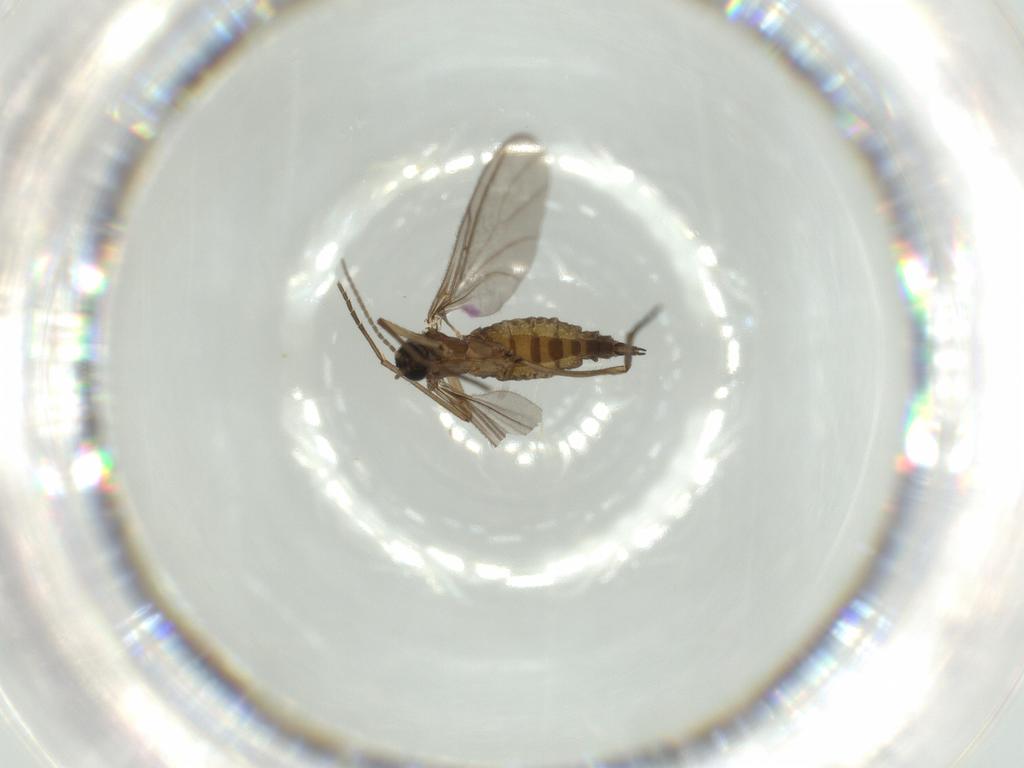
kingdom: Animalia
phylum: Arthropoda
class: Insecta
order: Diptera
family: Sciaridae
